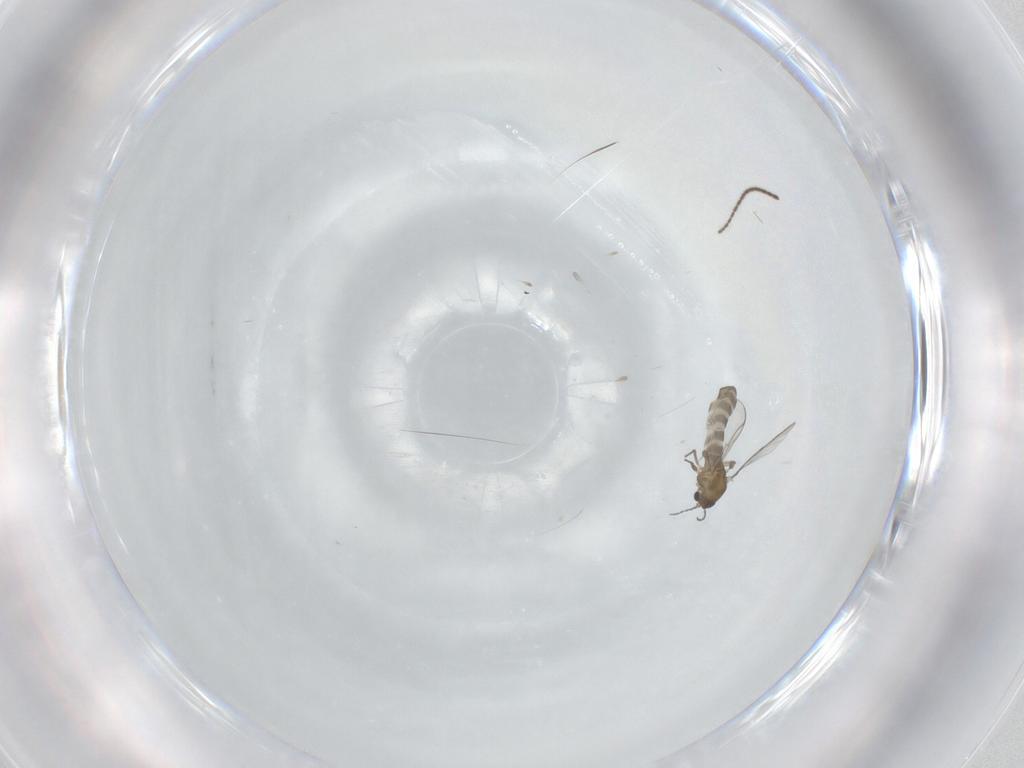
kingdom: Animalia
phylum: Arthropoda
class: Insecta
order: Diptera
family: Chironomidae
